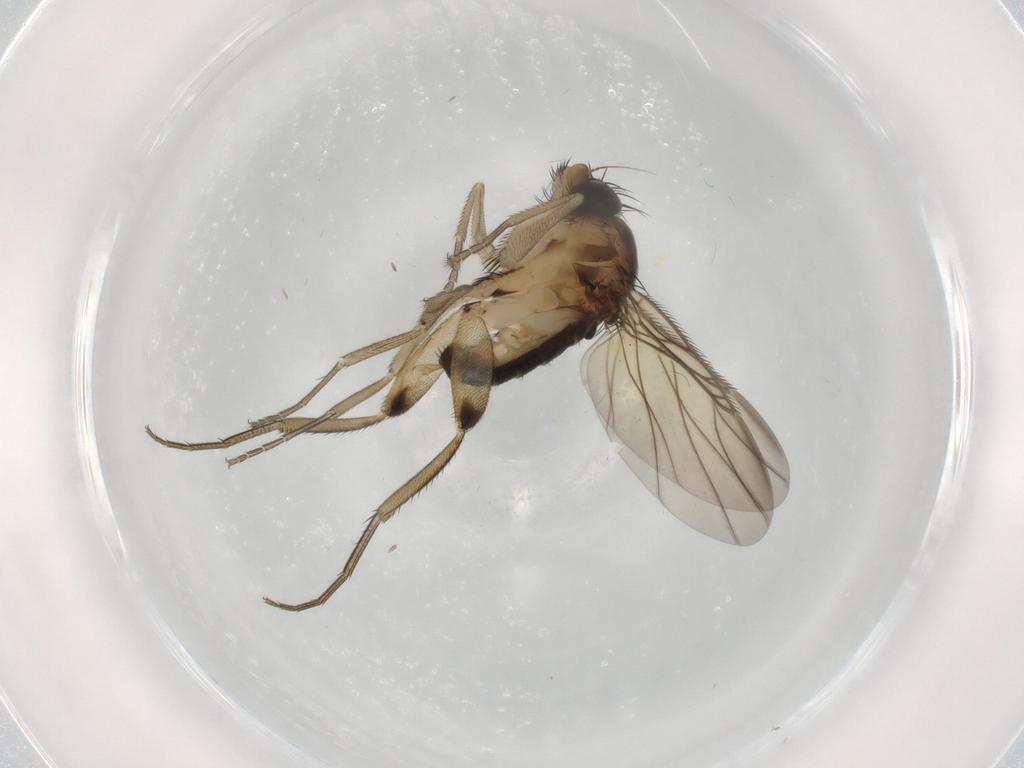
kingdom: Animalia
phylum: Arthropoda
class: Insecta
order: Diptera
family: Phoridae
